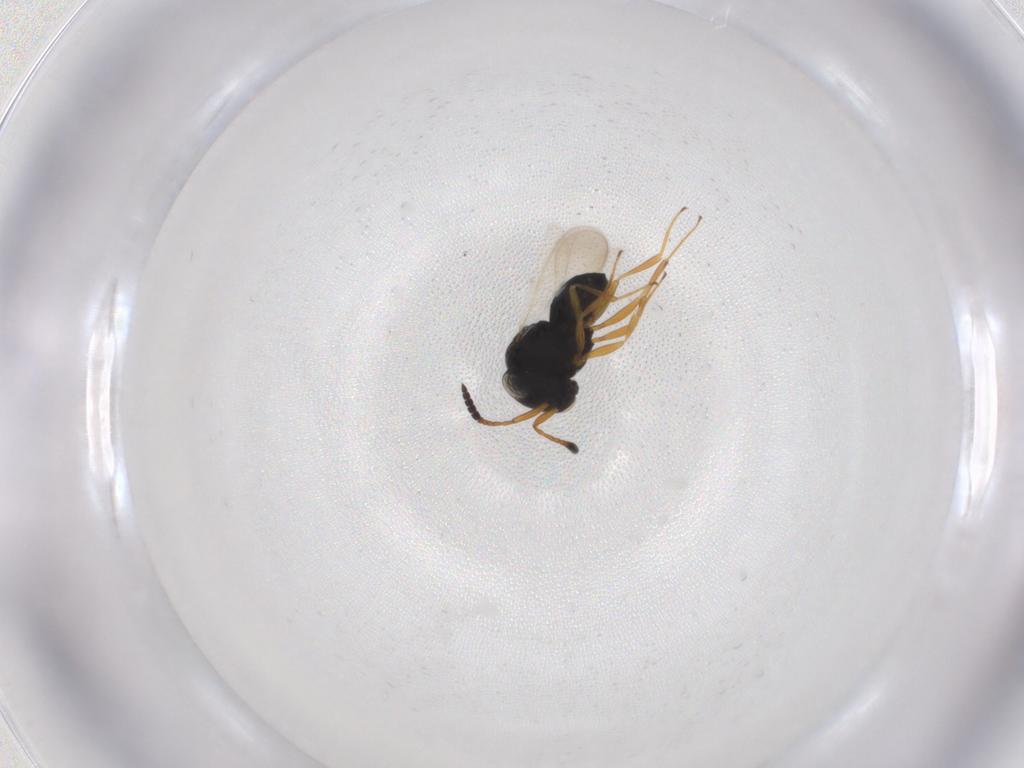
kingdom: Animalia
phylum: Arthropoda
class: Insecta
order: Hymenoptera
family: Scelionidae
